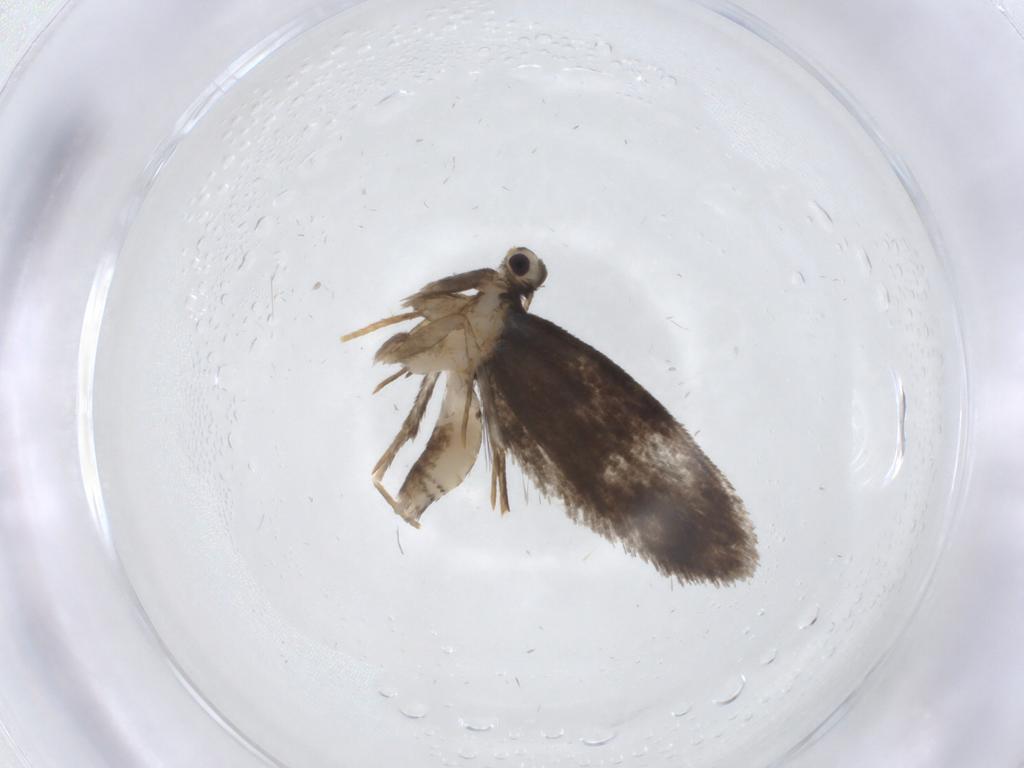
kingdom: Animalia
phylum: Arthropoda
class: Insecta
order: Lepidoptera
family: Psychidae
